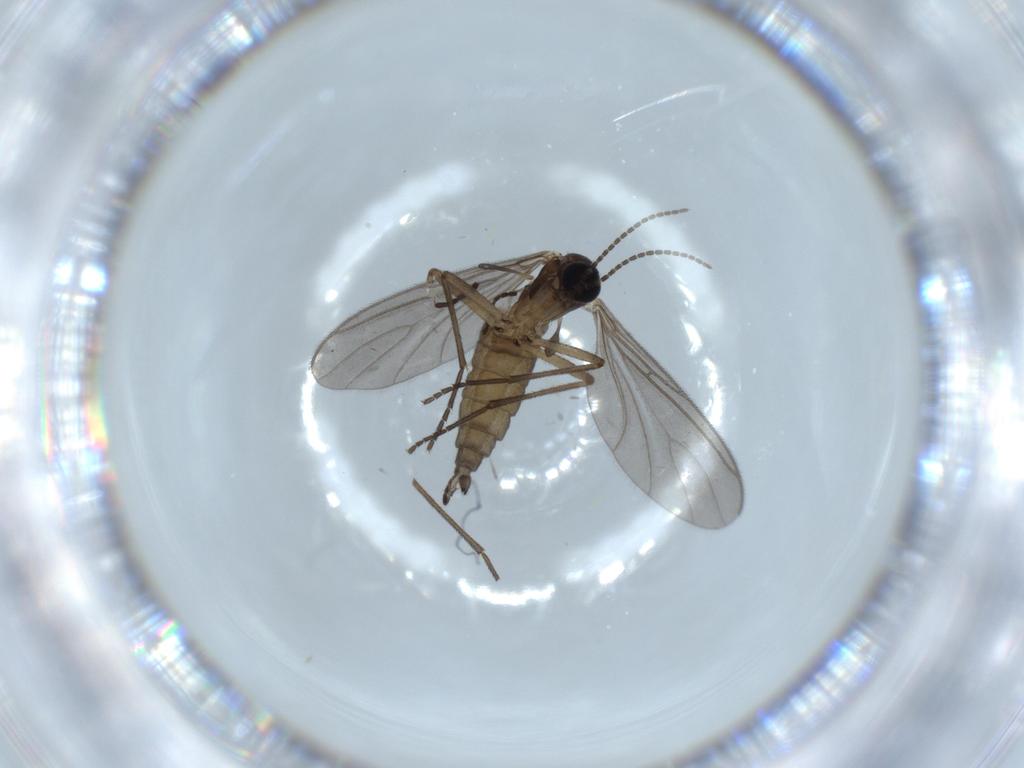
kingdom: Animalia
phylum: Arthropoda
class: Insecta
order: Diptera
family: Sciaridae
